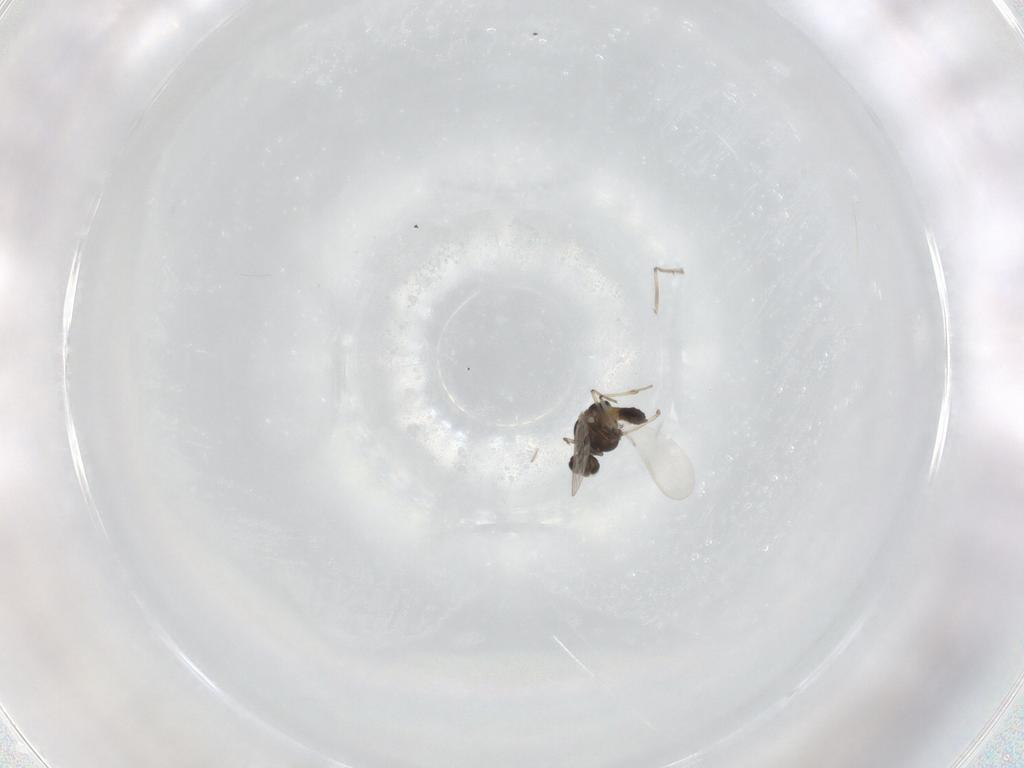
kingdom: Animalia
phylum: Arthropoda
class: Insecta
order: Diptera
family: Chironomidae
